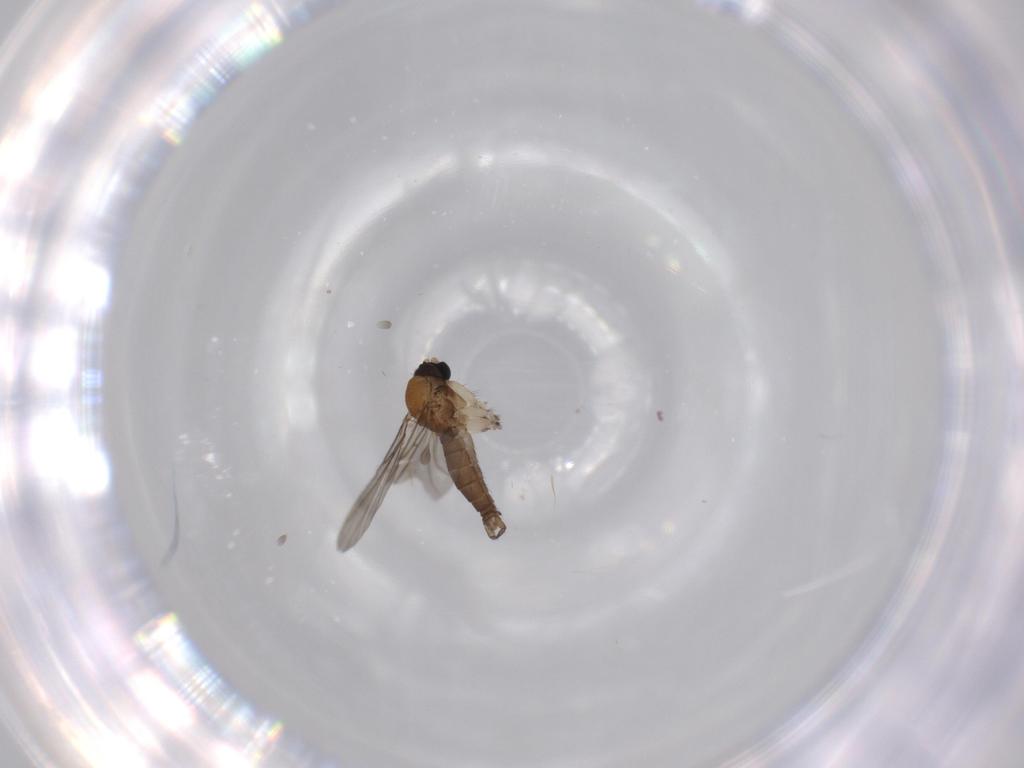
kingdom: Animalia
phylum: Arthropoda
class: Insecta
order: Diptera
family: Sciaridae
